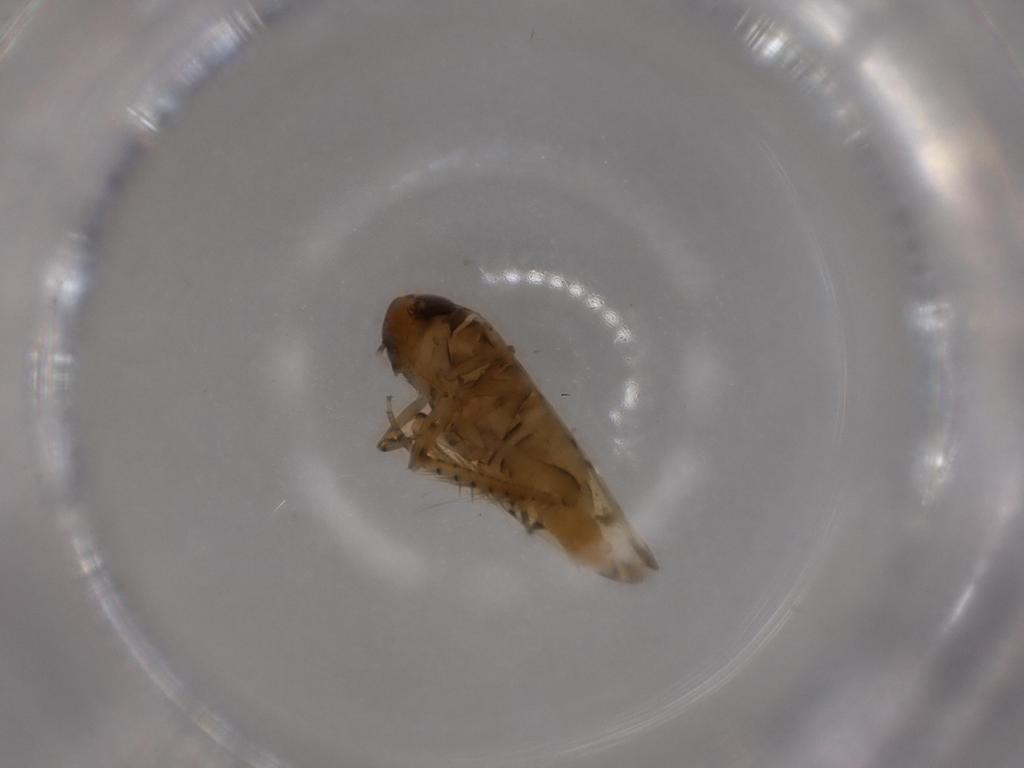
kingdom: Animalia
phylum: Arthropoda
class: Insecta
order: Hemiptera
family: Cicadellidae
